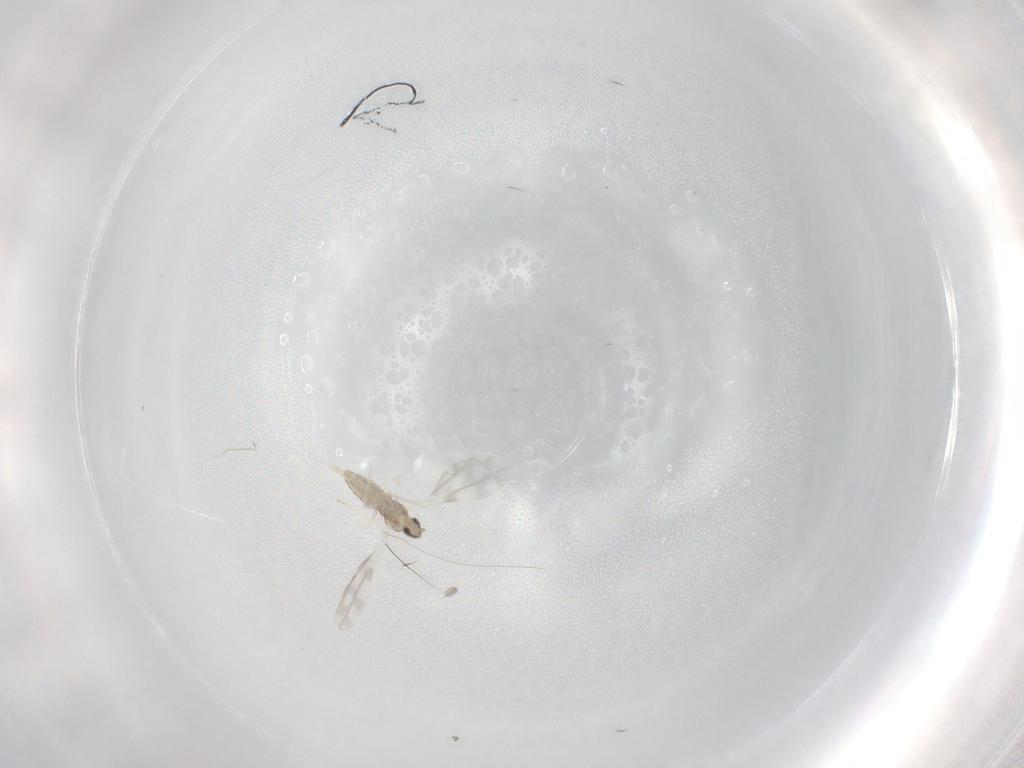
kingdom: Animalia
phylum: Arthropoda
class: Insecta
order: Diptera
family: Cecidomyiidae
